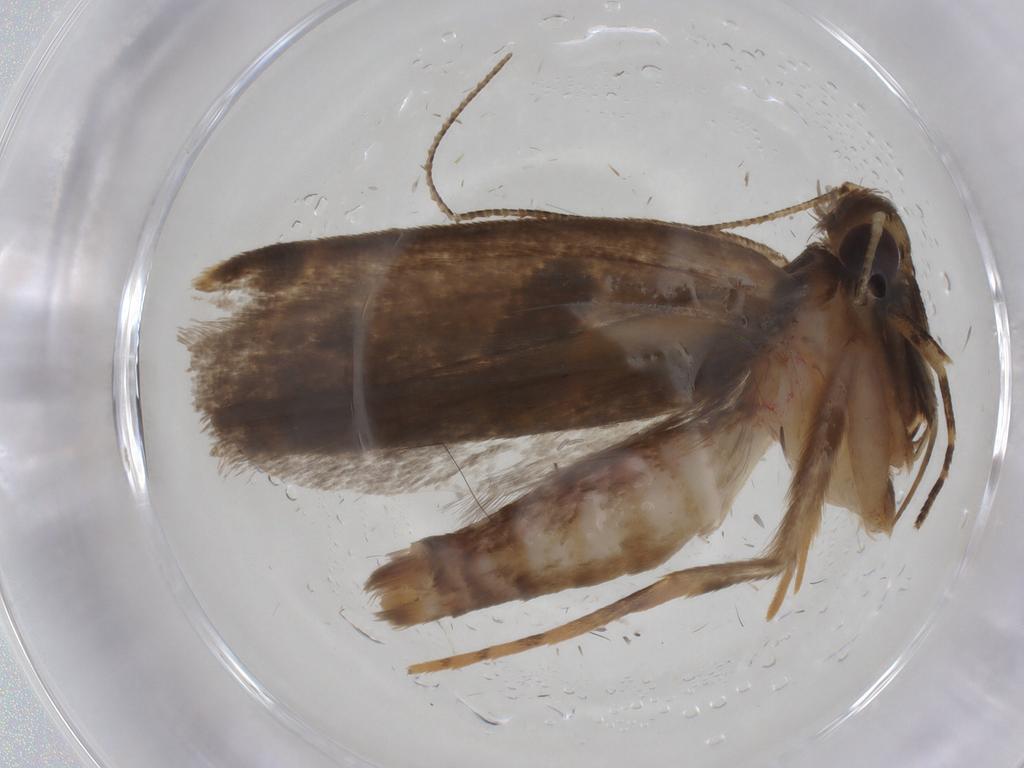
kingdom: Animalia
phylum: Arthropoda
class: Insecta
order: Lepidoptera
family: Gelechiidae
